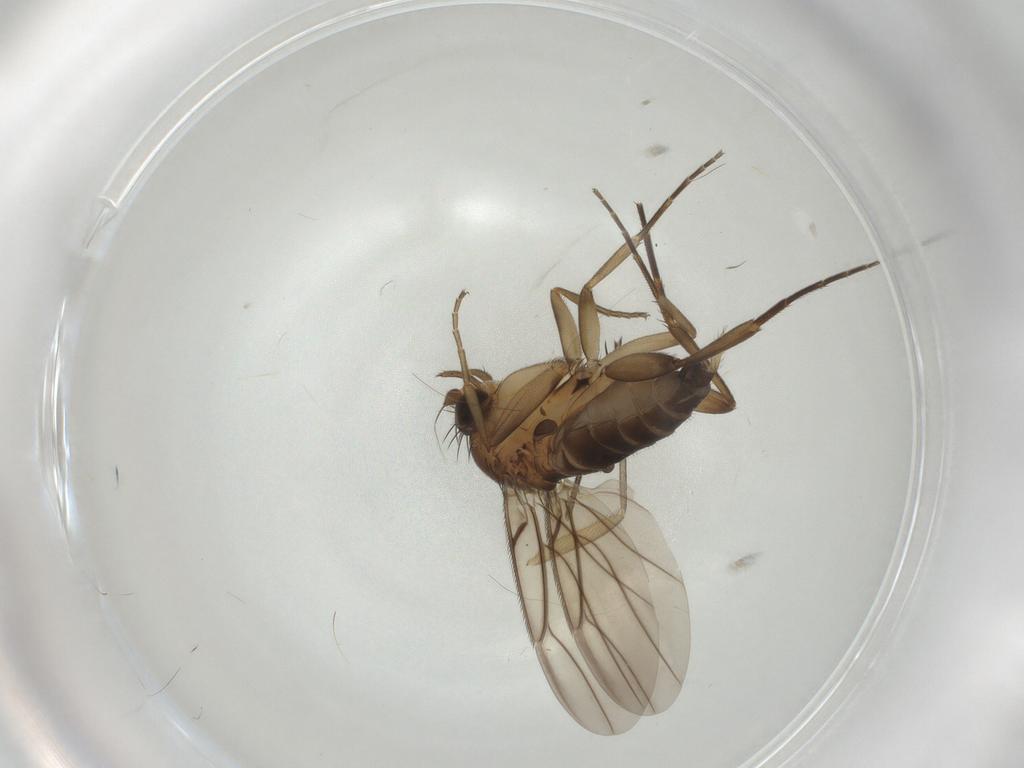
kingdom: Animalia
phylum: Arthropoda
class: Insecta
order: Diptera
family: Phoridae
